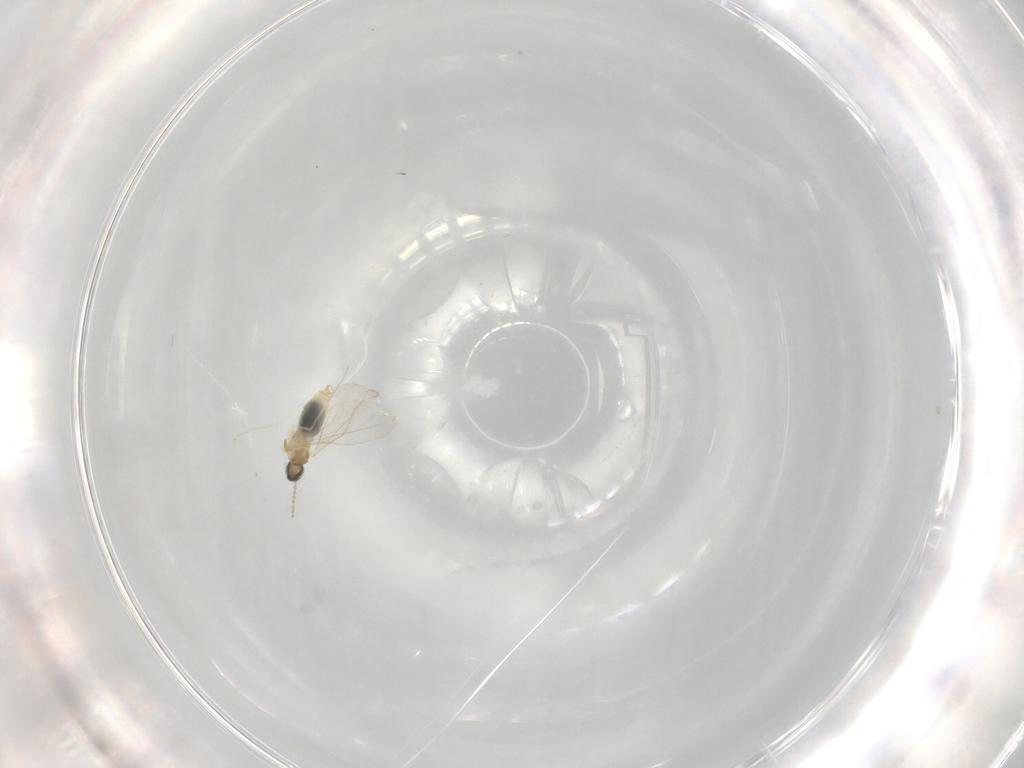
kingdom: Animalia
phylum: Arthropoda
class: Insecta
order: Diptera
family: Cecidomyiidae
